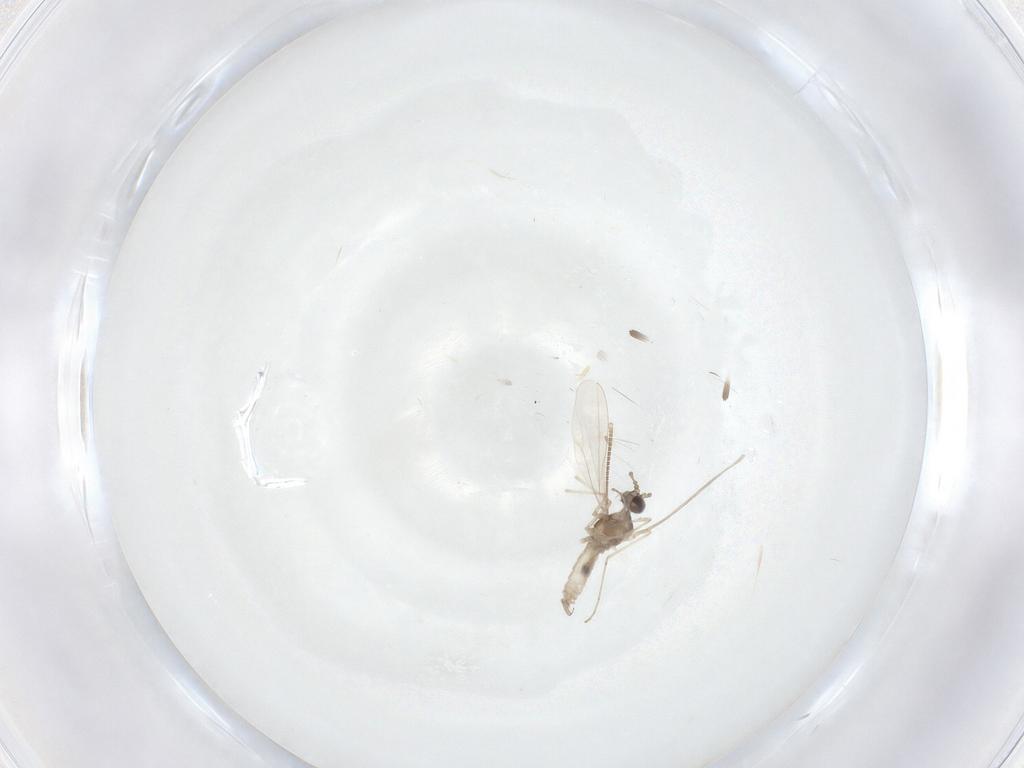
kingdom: Animalia
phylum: Arthropoda
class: Insecta
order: Diptera
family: Cecidomyiidae
